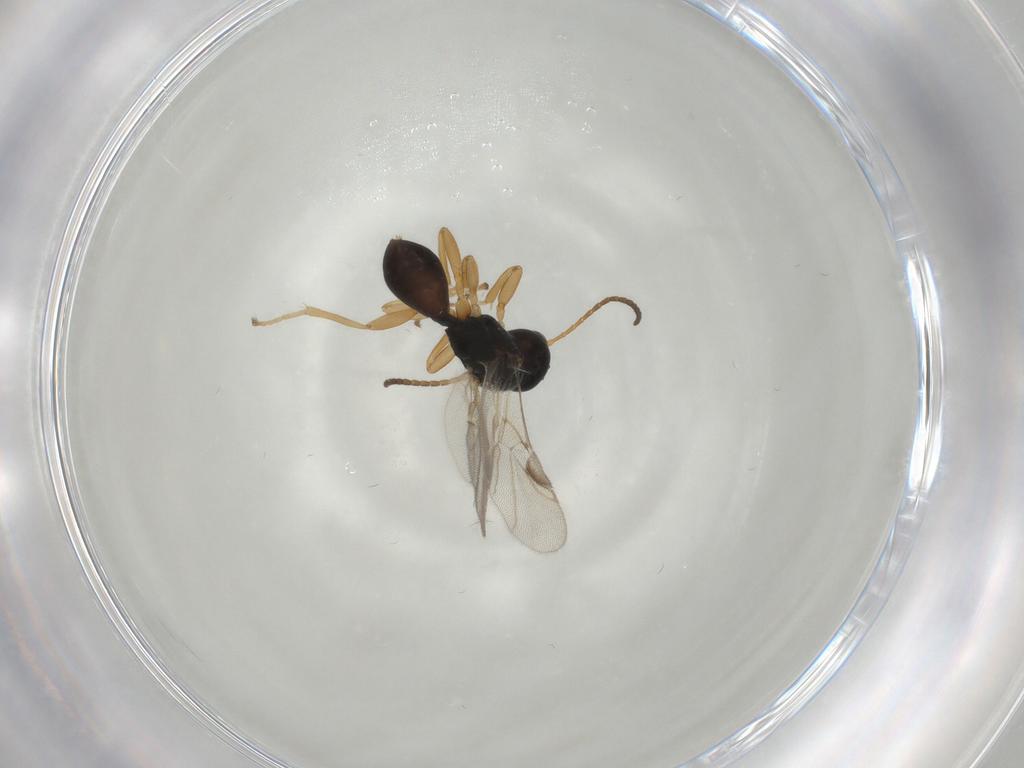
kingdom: Animalia
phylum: Arthropoda
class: Insecta
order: Hymenoptera
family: Braconidae
